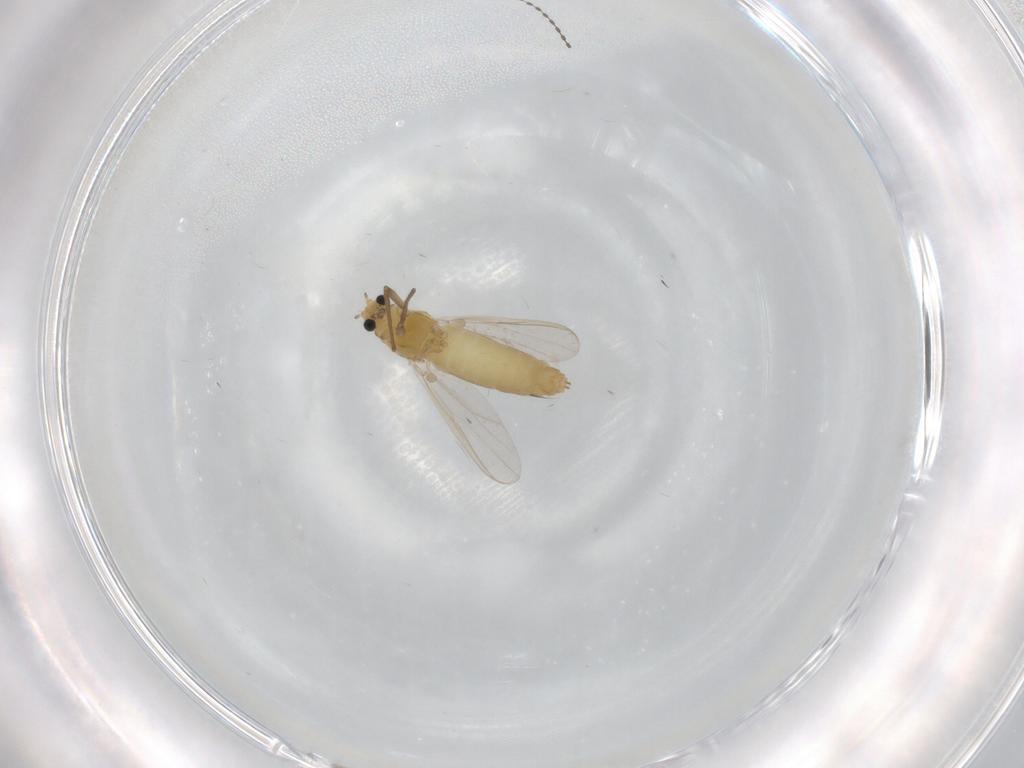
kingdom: Animalia
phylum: Arthropoda
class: Insecta
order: Diptera
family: Chironomidae
